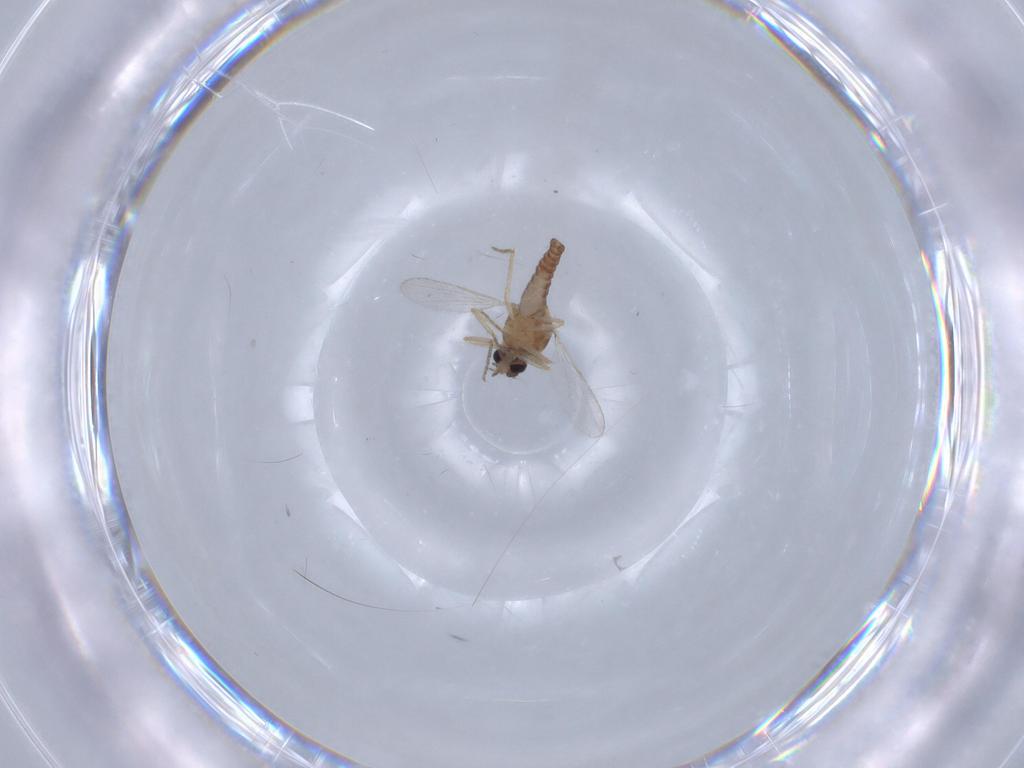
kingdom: Animalia
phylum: Arthropoda
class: Insecta
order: Diptera
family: Ceratopogonidae
